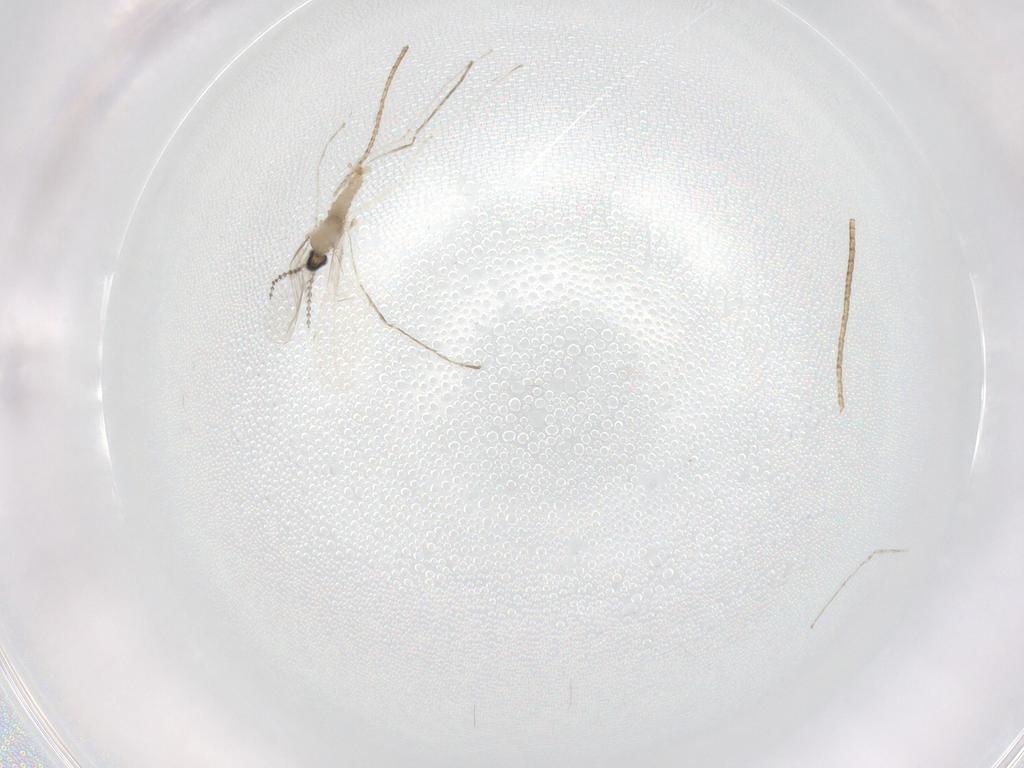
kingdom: Animalia
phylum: Arthropoda
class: Insecta
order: Diptera
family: Cecidomyiidae
